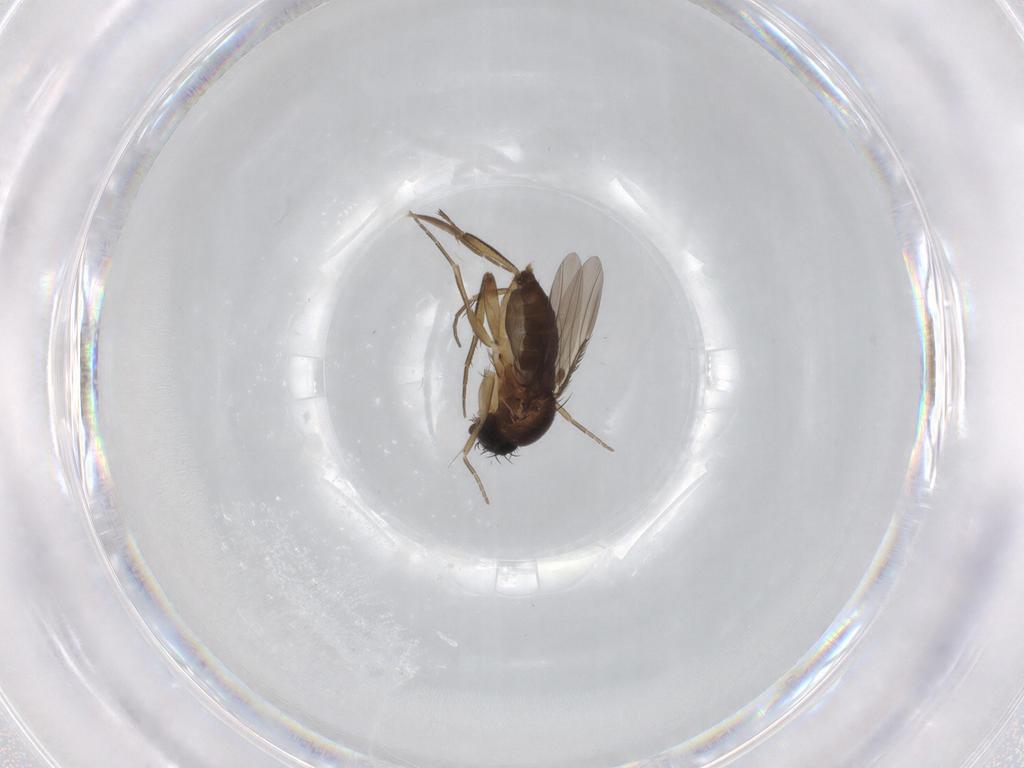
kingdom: Animalia
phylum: Arthropoda
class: Insecta
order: Diptera
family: Phoridae
